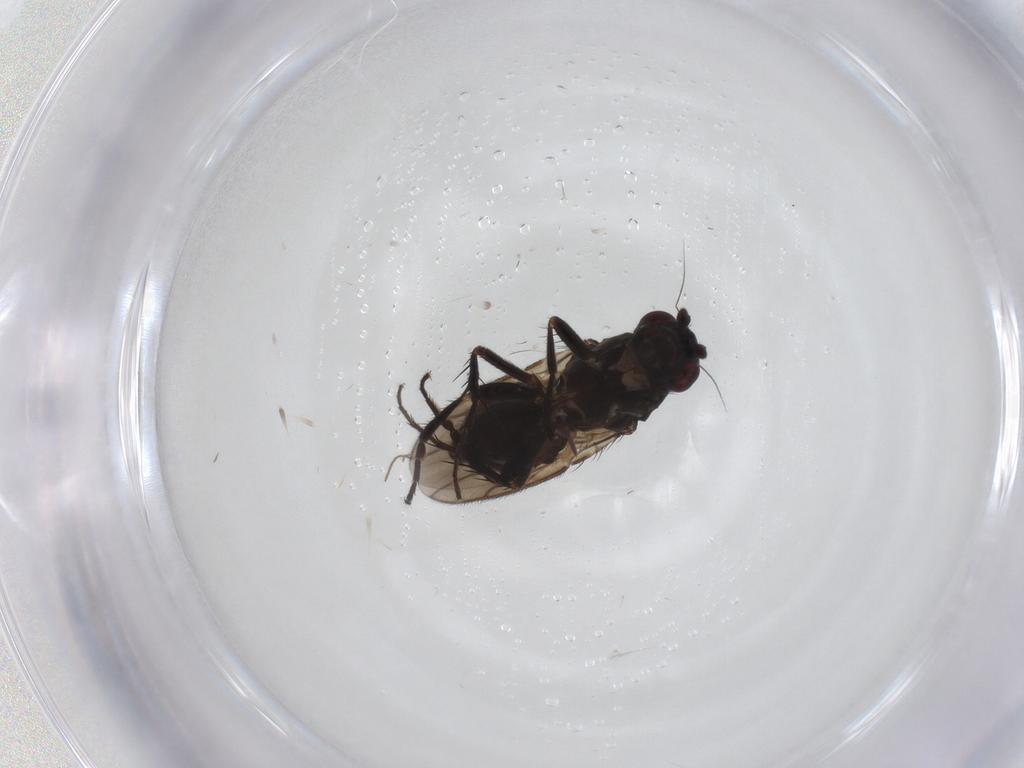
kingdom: Animalia
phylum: Arthropoda
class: Insecta
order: Diptera
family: Sphaeroceridae
